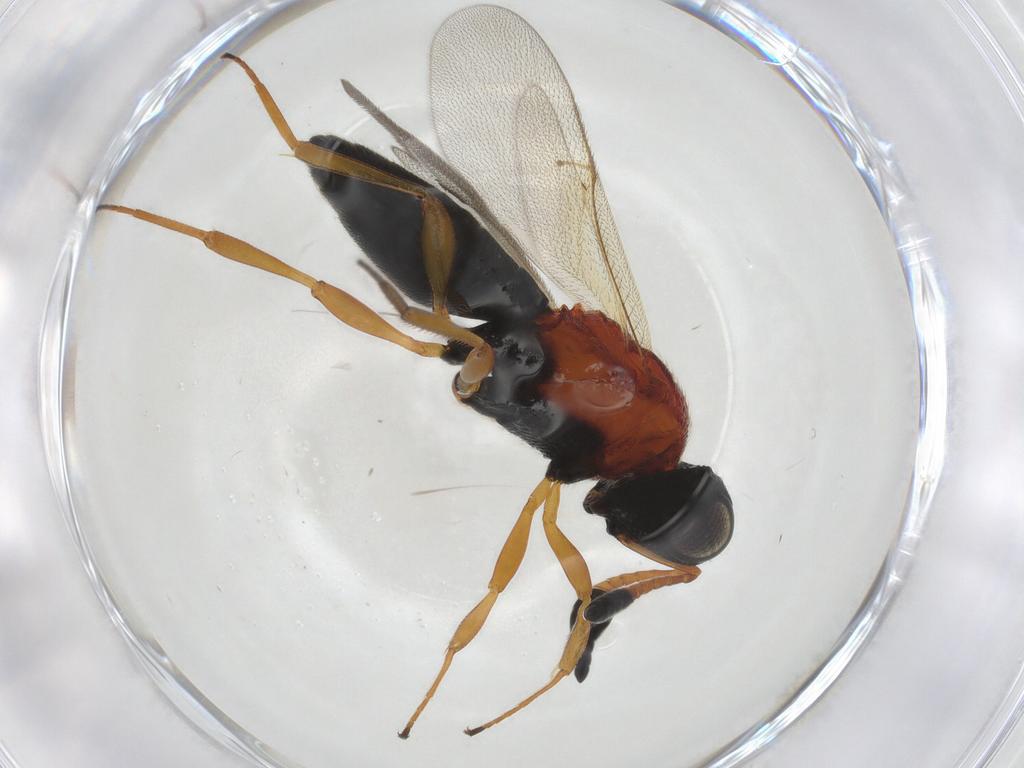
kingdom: Animalia
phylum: Arthropoda
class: Insecta
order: Hymenoptera
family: Scelionidae
